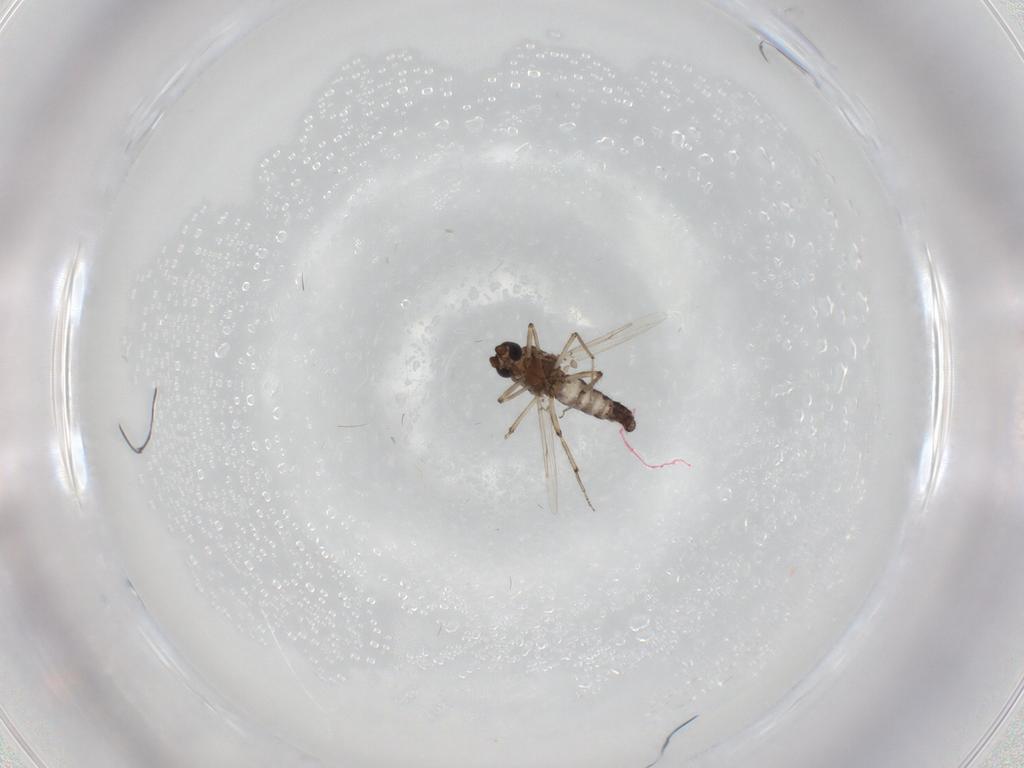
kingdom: Animalia
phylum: Arthropoda
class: Insecta
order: Diptera
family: Ceratopogonidae
